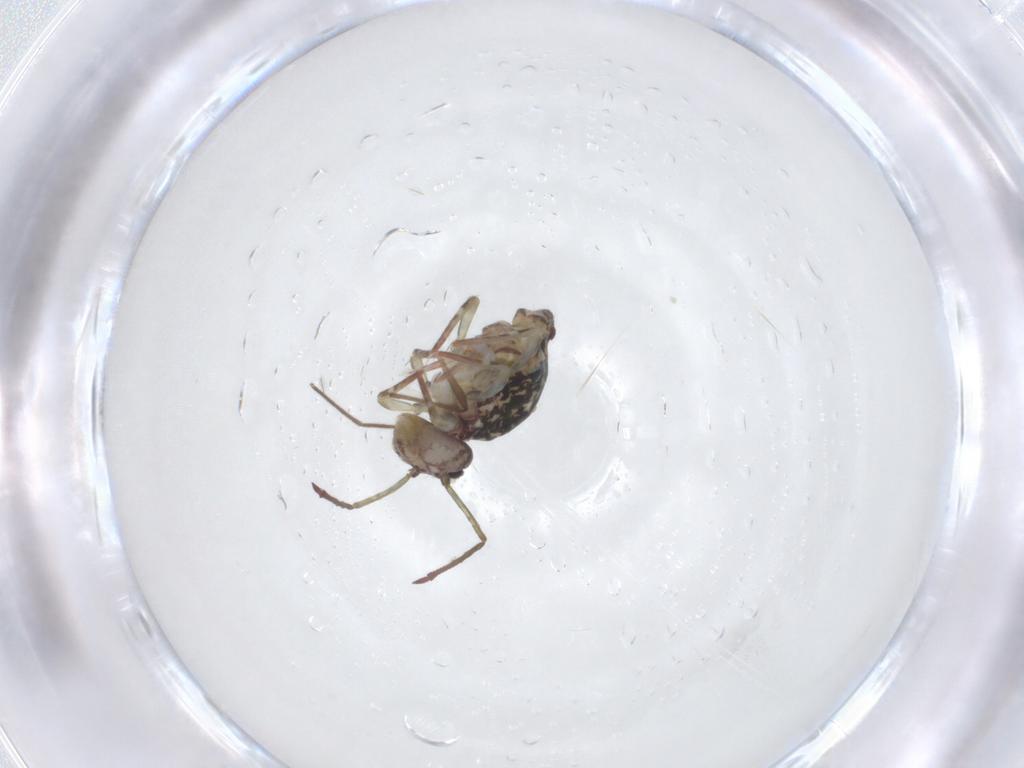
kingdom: Animalia
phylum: Arthropoda
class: Collembola
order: Symphypleona
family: Dicyrtomidae
